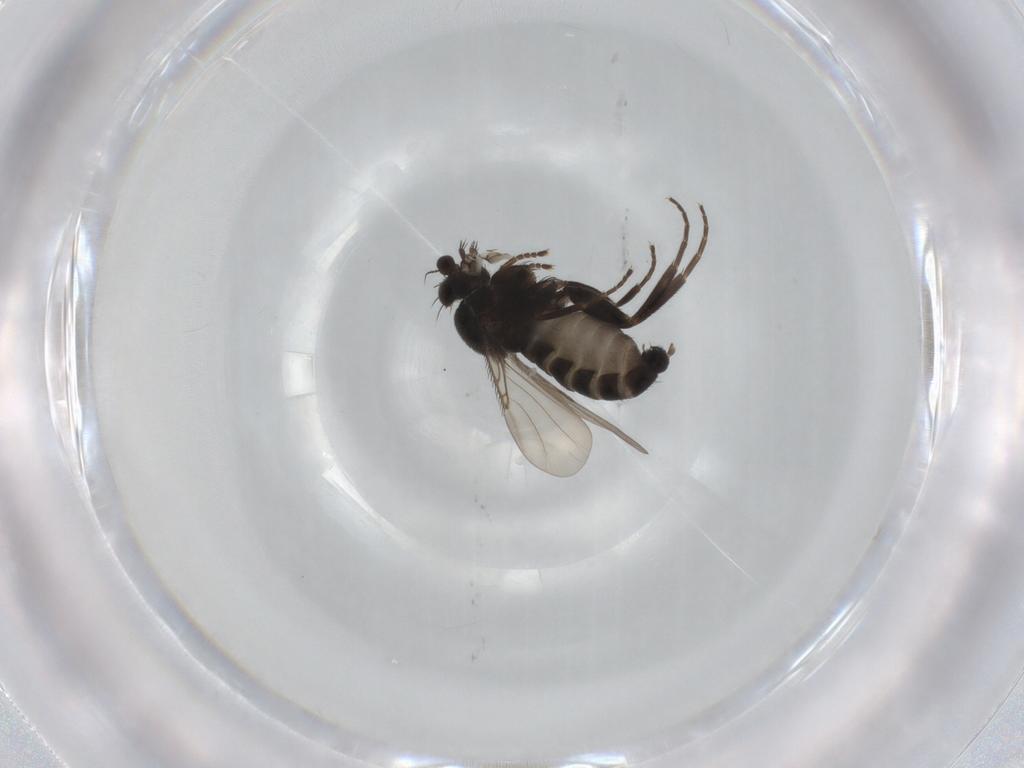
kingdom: Animalia
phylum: Arthropoda
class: Insecta
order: Diptera
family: Phoridae
